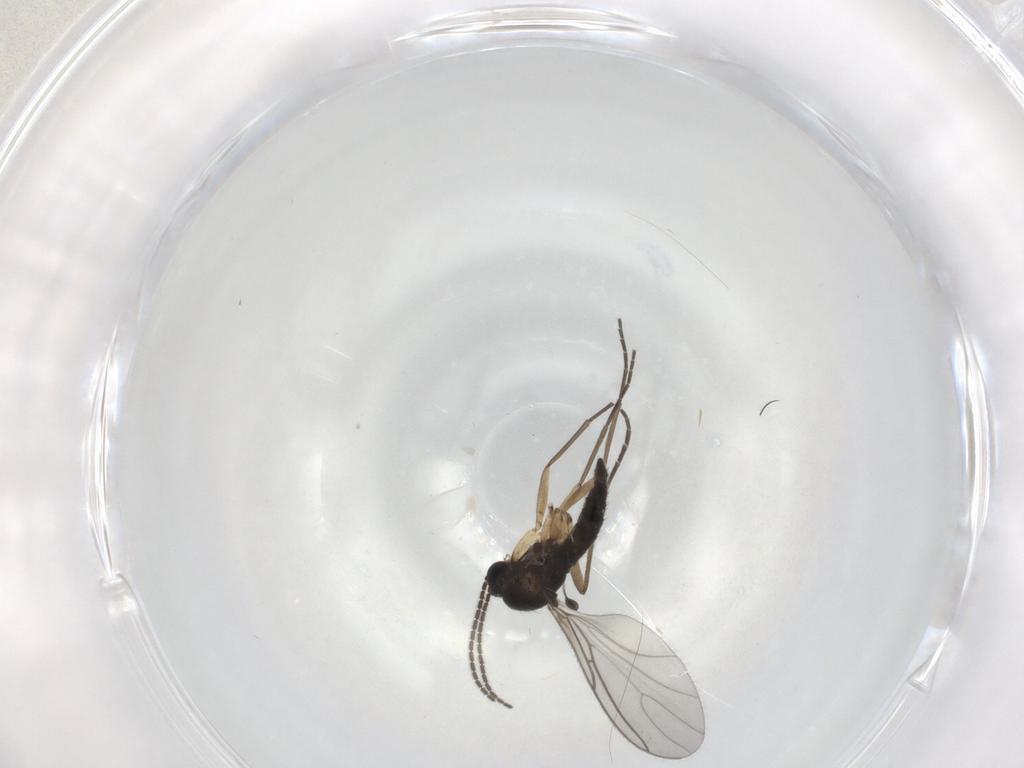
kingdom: Animalia
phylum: Arthropoda
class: Insecta
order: Diptera
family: Sciaridae
